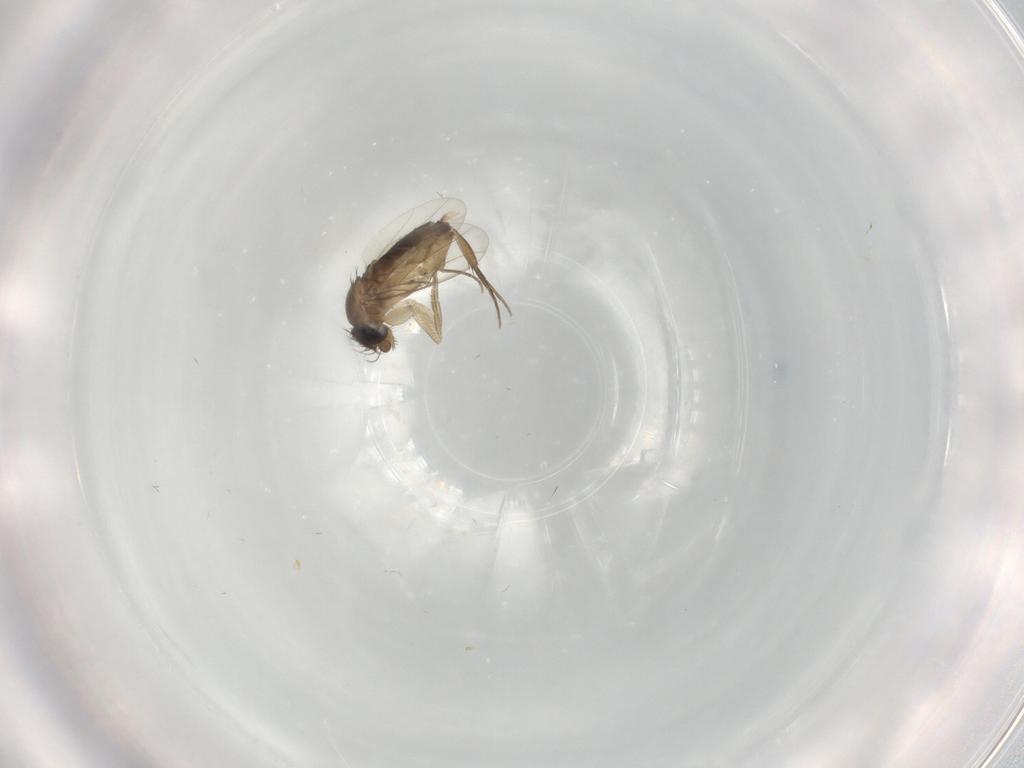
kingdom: Animalia
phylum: Arthropoda
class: Insecta
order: Diptera
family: Phoridae
